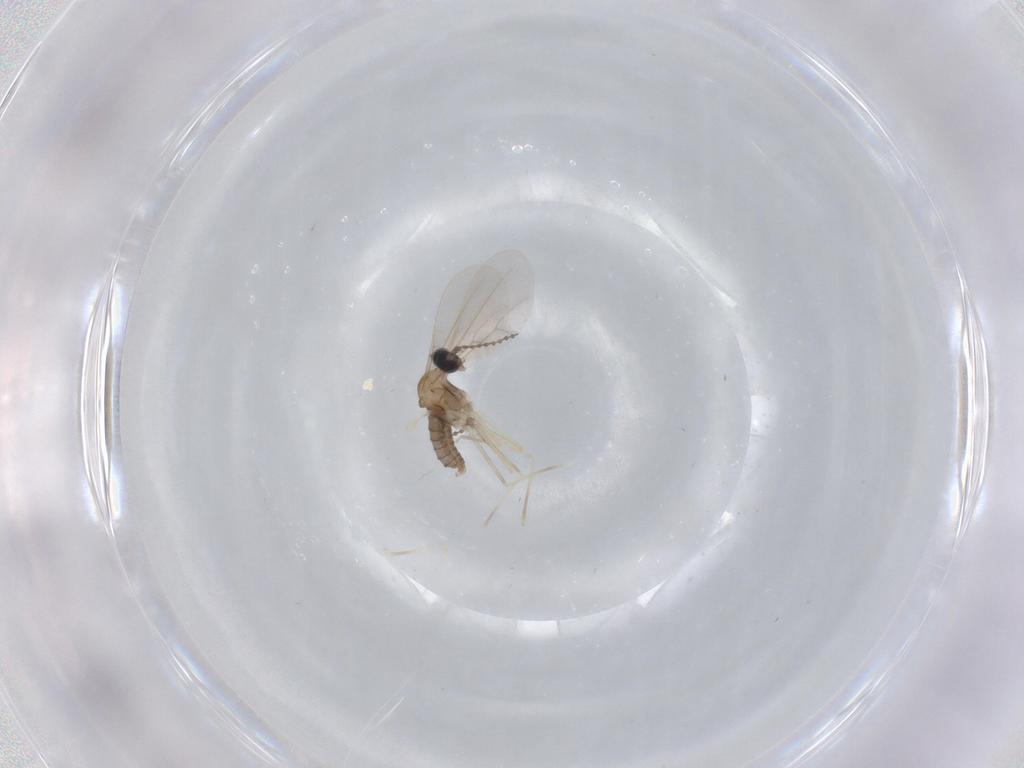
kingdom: Animalia
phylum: Arthropoda
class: Insecta
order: Diptera
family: Cecidomyiidae
